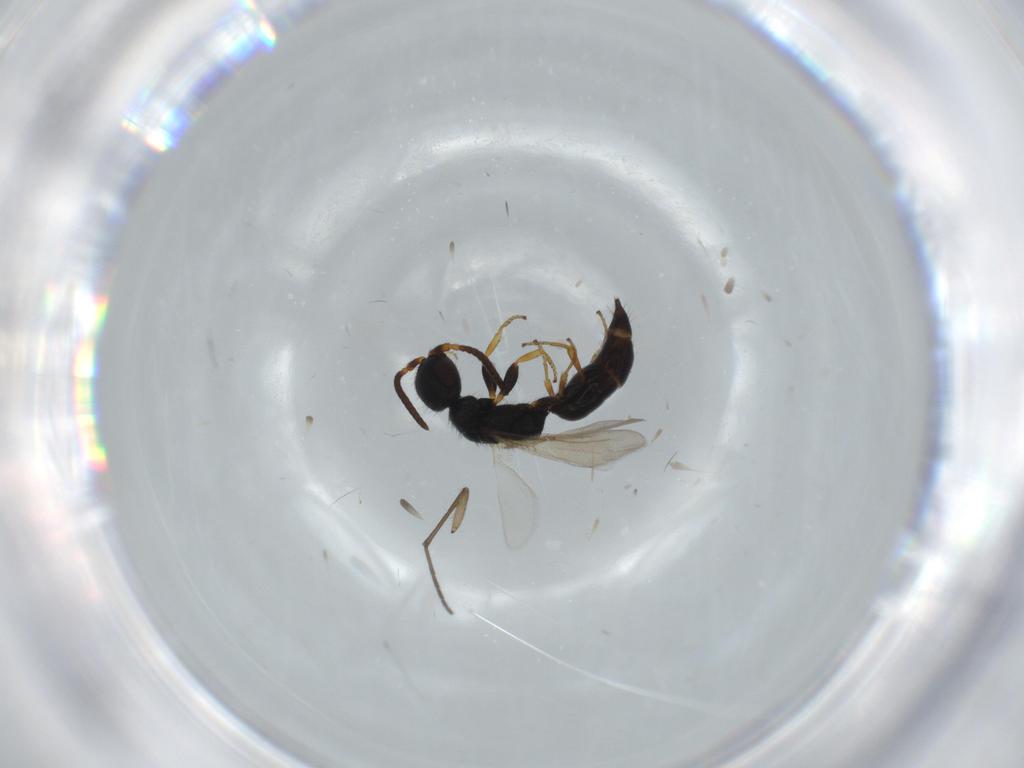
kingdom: Animalia
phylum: Arthropoda
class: Insecta
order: Hymenoptera
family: Bethylidae
